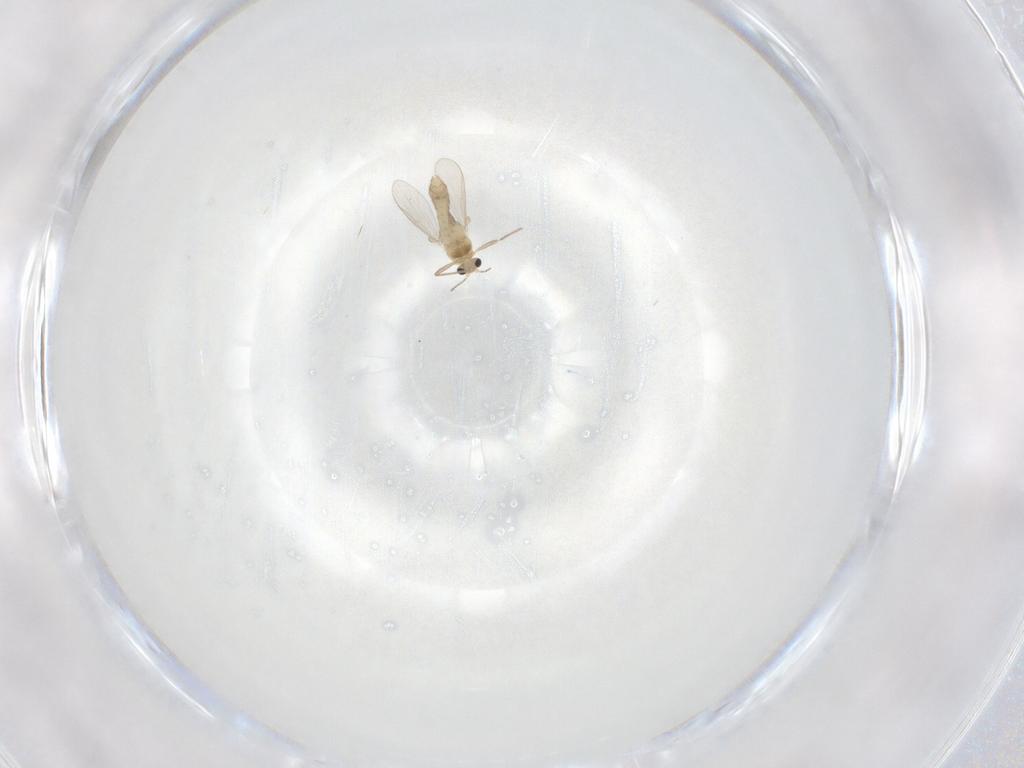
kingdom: Animalia
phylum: Arthropoda
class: Insecta
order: Diptera
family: Chironomidae
